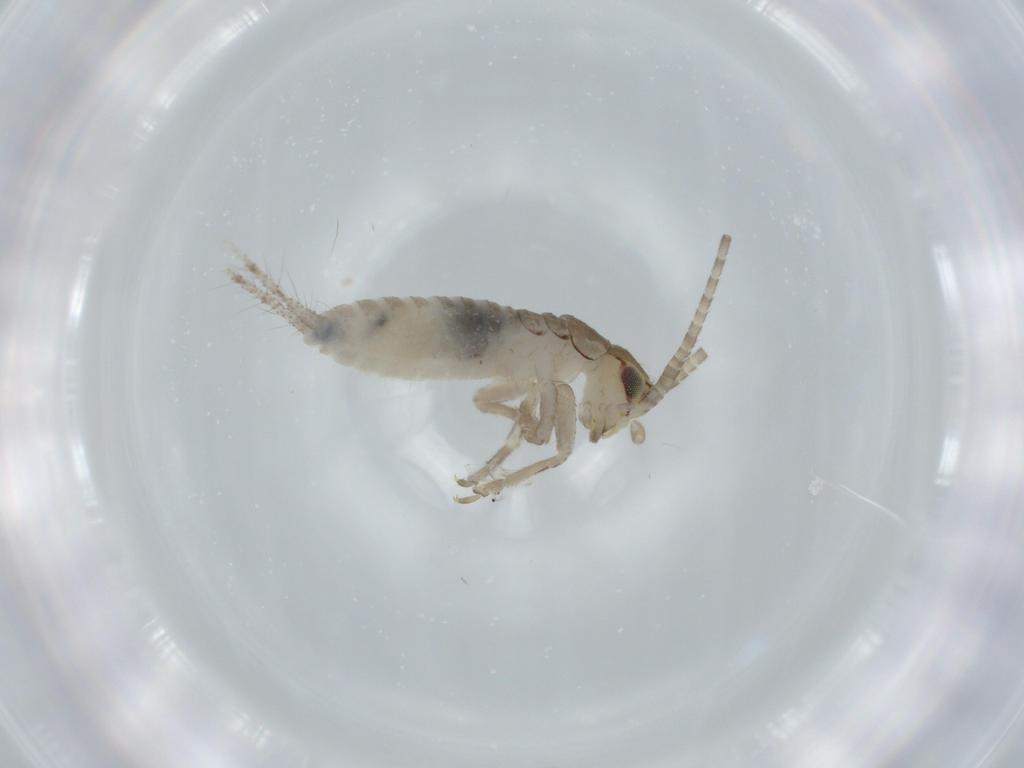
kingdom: Animalia
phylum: Arthropoda
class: Insecta
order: Orthoptera
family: Gryllidae
